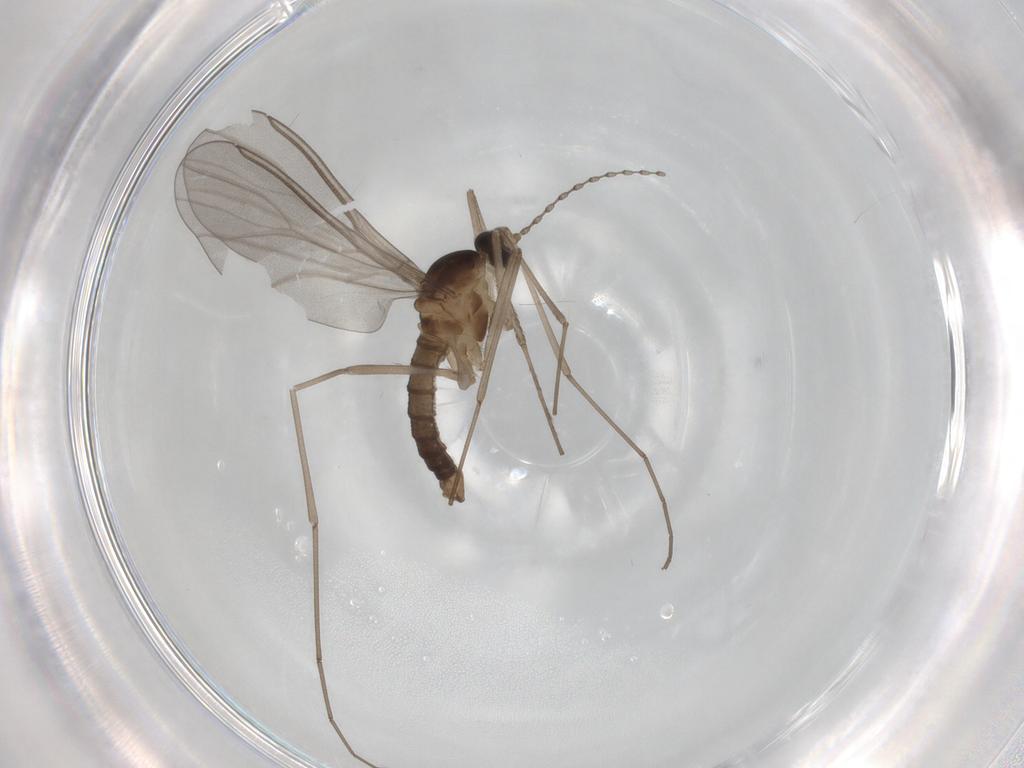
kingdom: Animalia
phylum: Arthropoda
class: Insecta
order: Diptera
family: Cecidomyiidae
